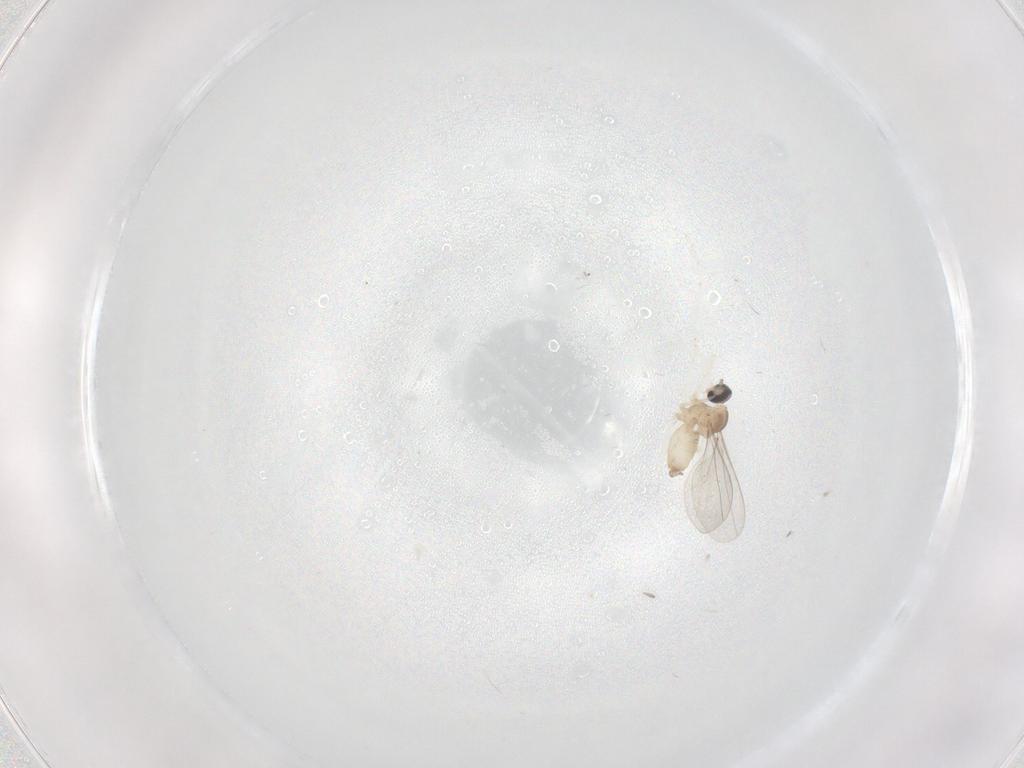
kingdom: Animalia
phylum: Arthropoda
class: Insecta
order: Diptera
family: Cecidomyiidae
